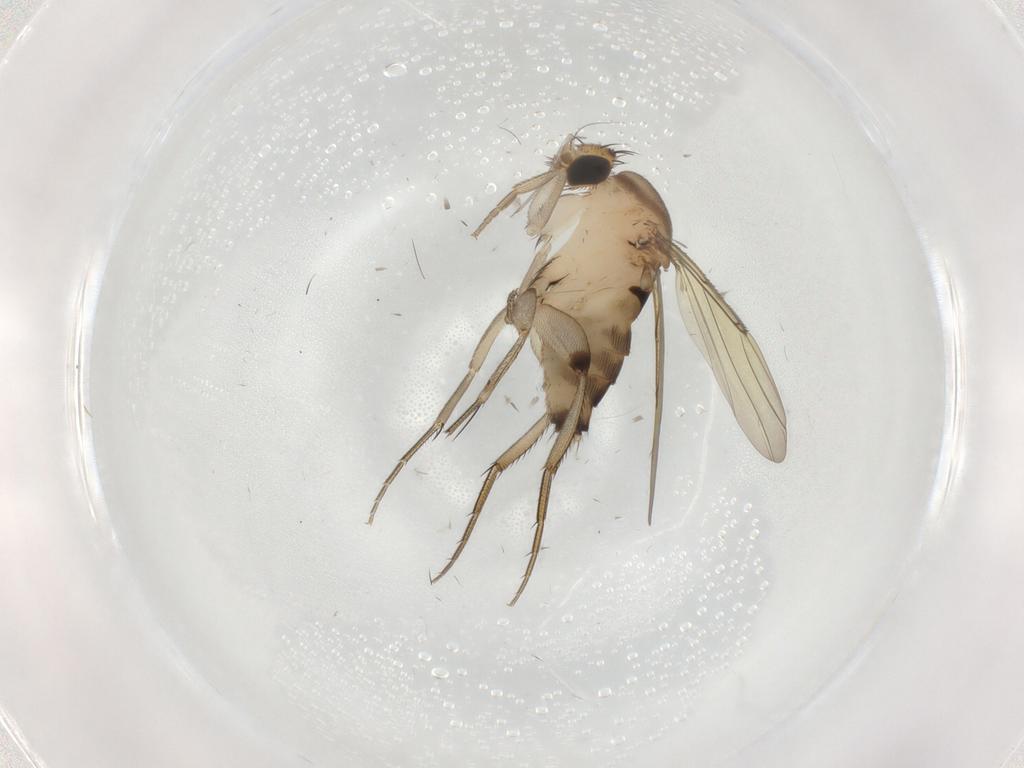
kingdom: Animalia
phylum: Arthropoda
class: Insecta
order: Diptera
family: Phoridae
